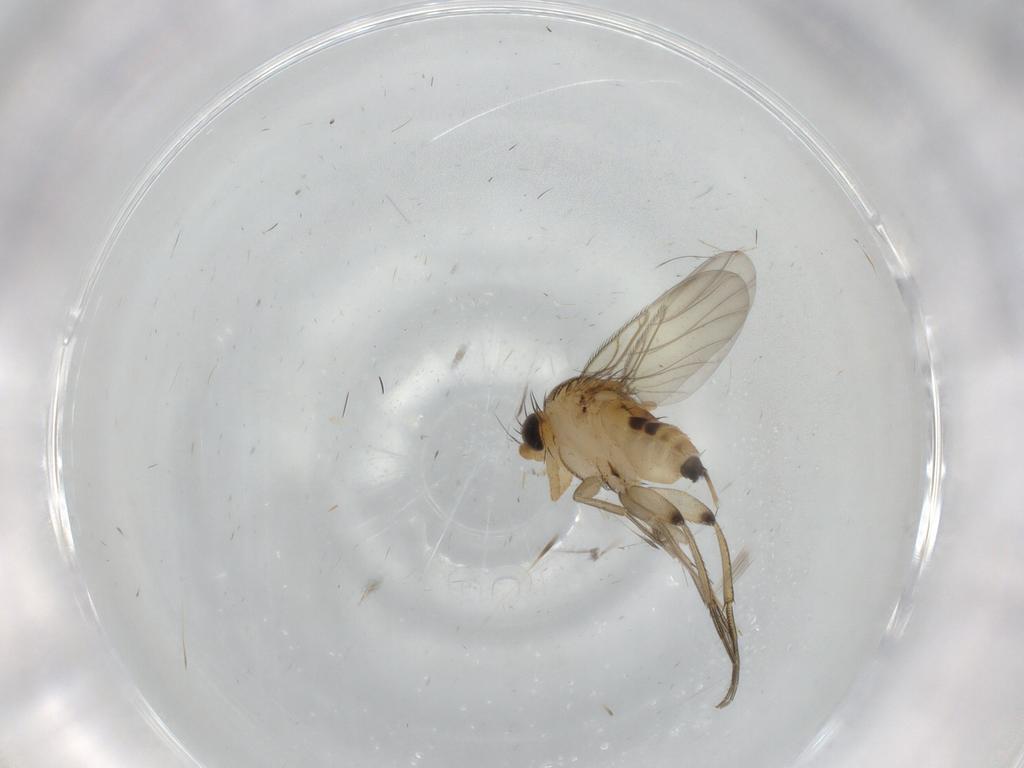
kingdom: Animalia
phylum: Arthropoda
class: Insecta
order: Diptera
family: Phoridae
